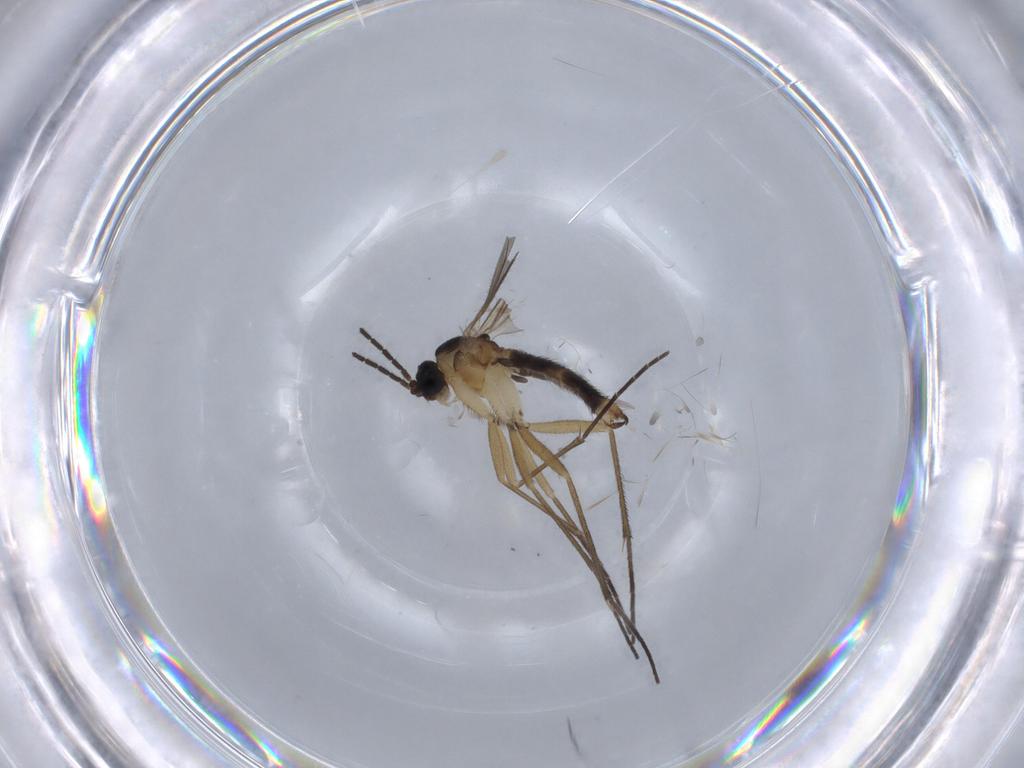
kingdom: Animalia
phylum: Arthropoda
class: Insecta
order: Diptera
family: Sciaridae
